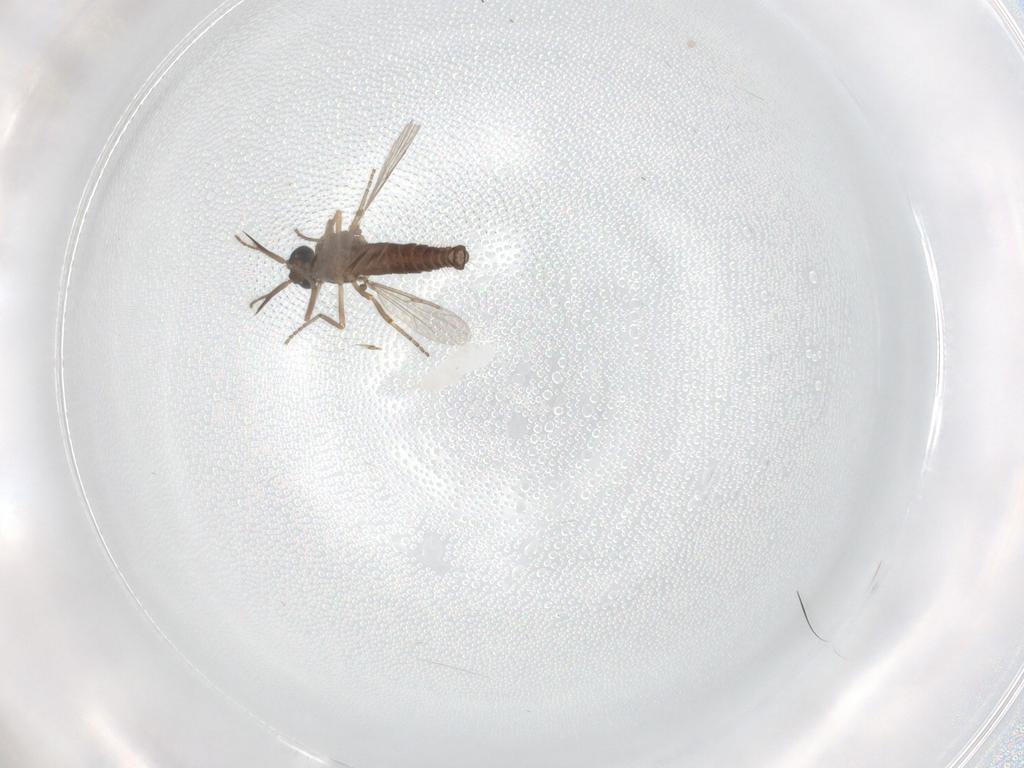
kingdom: Animalia
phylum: Arthropoda
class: Insecta
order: Diptera
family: Ceratopogonidae
